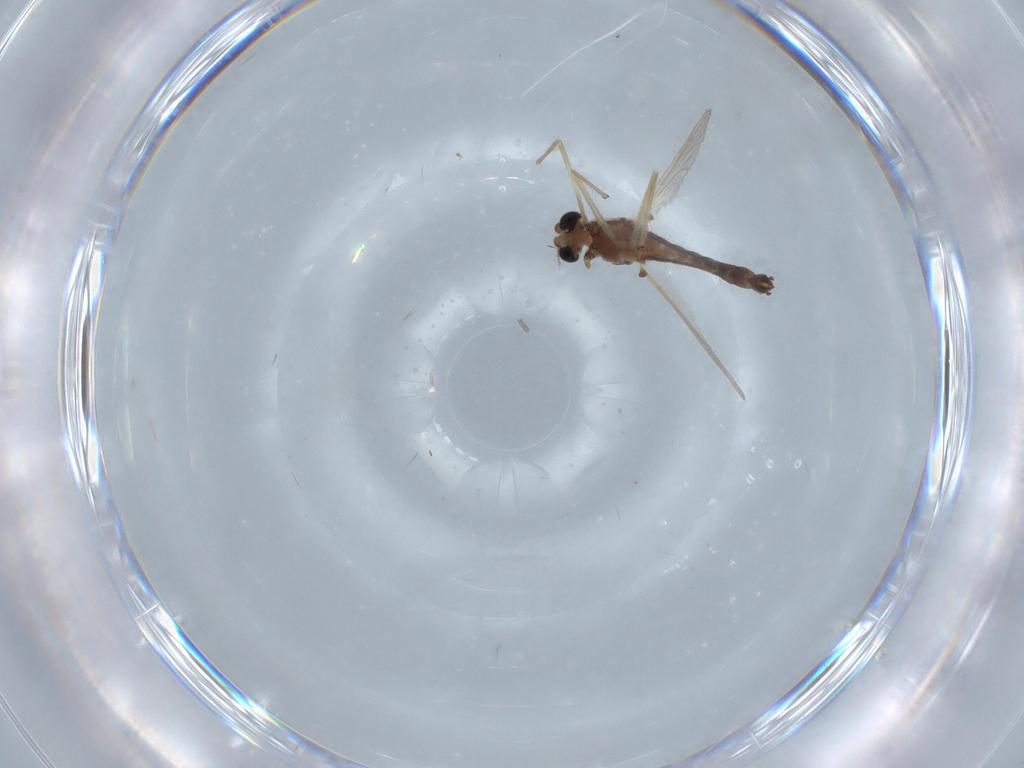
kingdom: Animalia
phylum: Arthropoda
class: Insecta
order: Diptera
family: Chironomidae
